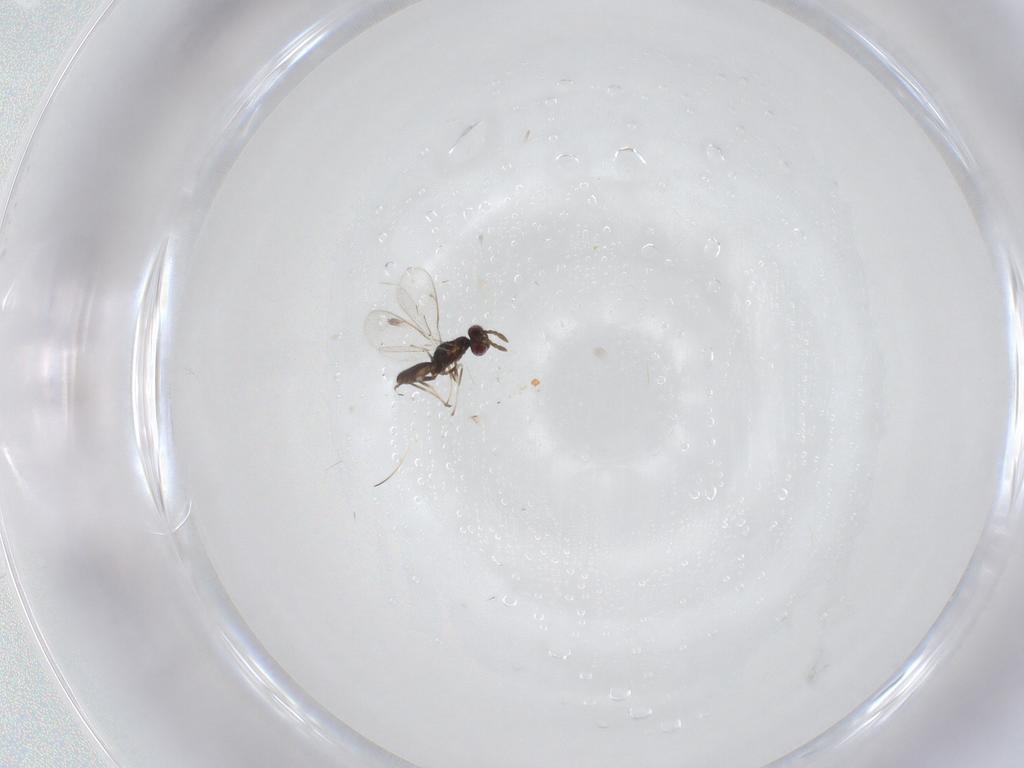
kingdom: Animalia
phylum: Arthropoda
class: Insecta
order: Hymenoptera
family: Eulophidae
